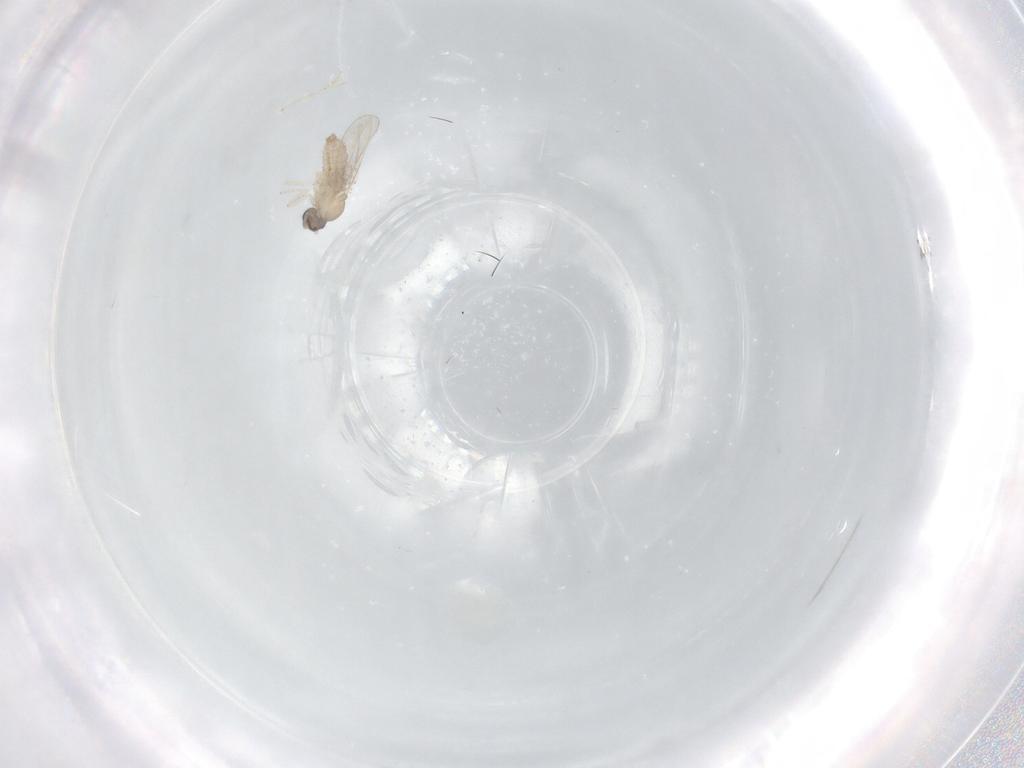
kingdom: Animalia
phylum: Arthropoda
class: Insecta
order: Diptera
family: Cecidomyiidae
